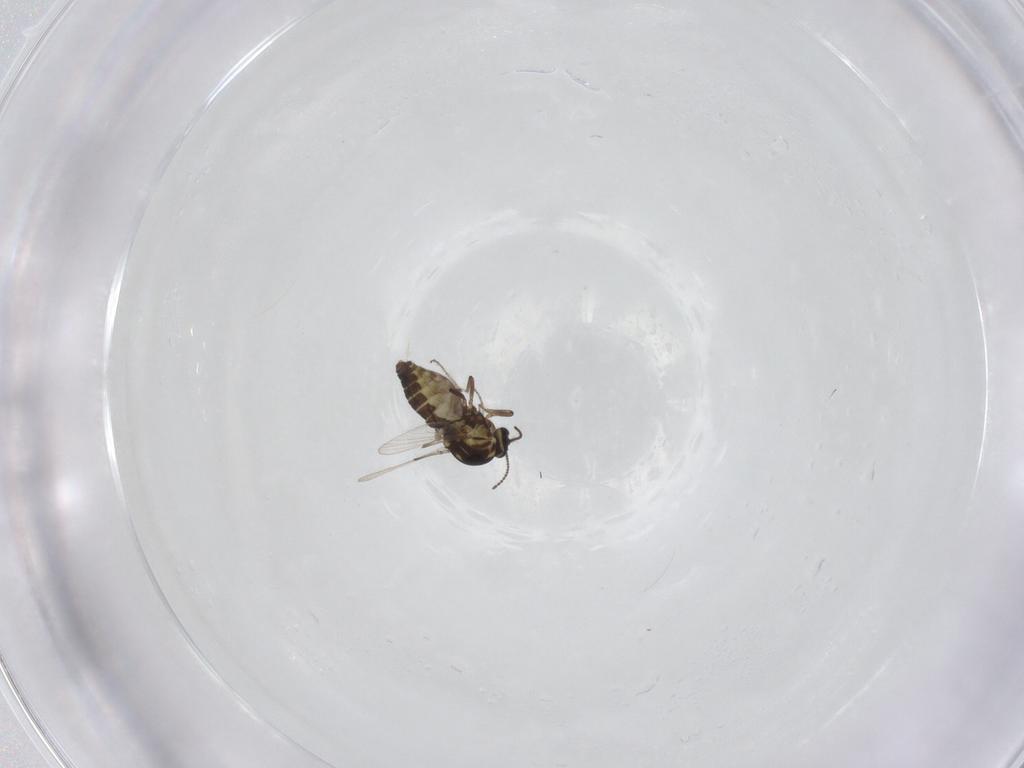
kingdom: Animalia
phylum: Arthropoda
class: Insecta
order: Diptera
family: Ceratopogonidae
